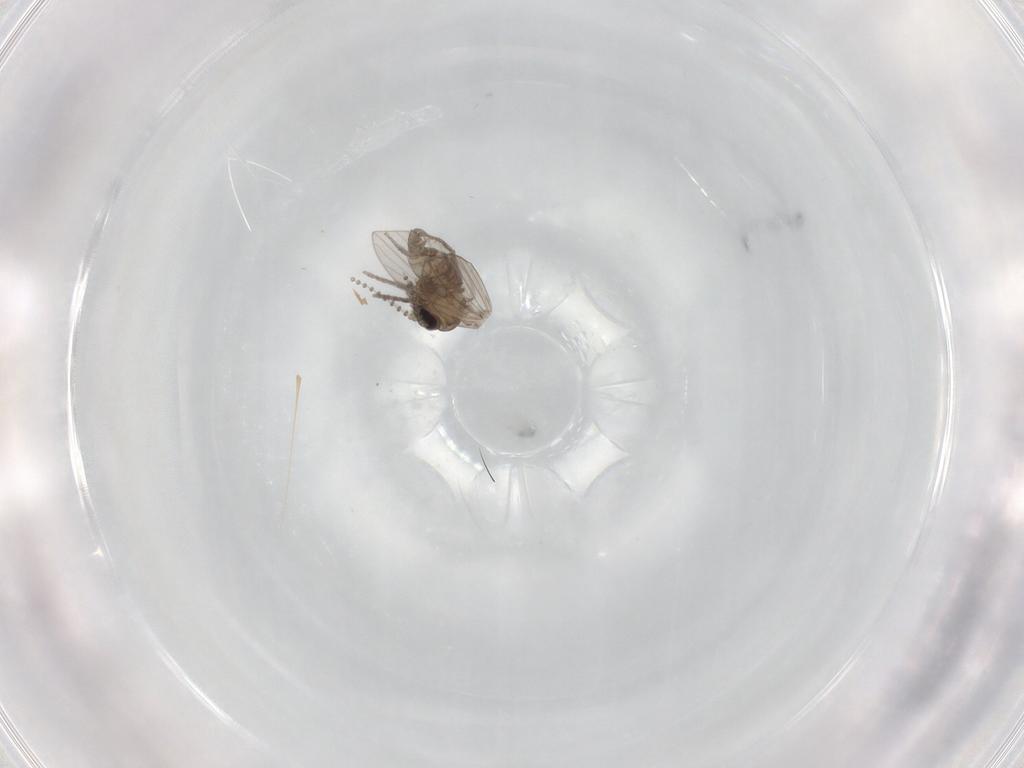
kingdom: Animalia
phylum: Arthropoda
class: Insecta
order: Diptera
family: Psychodidae
